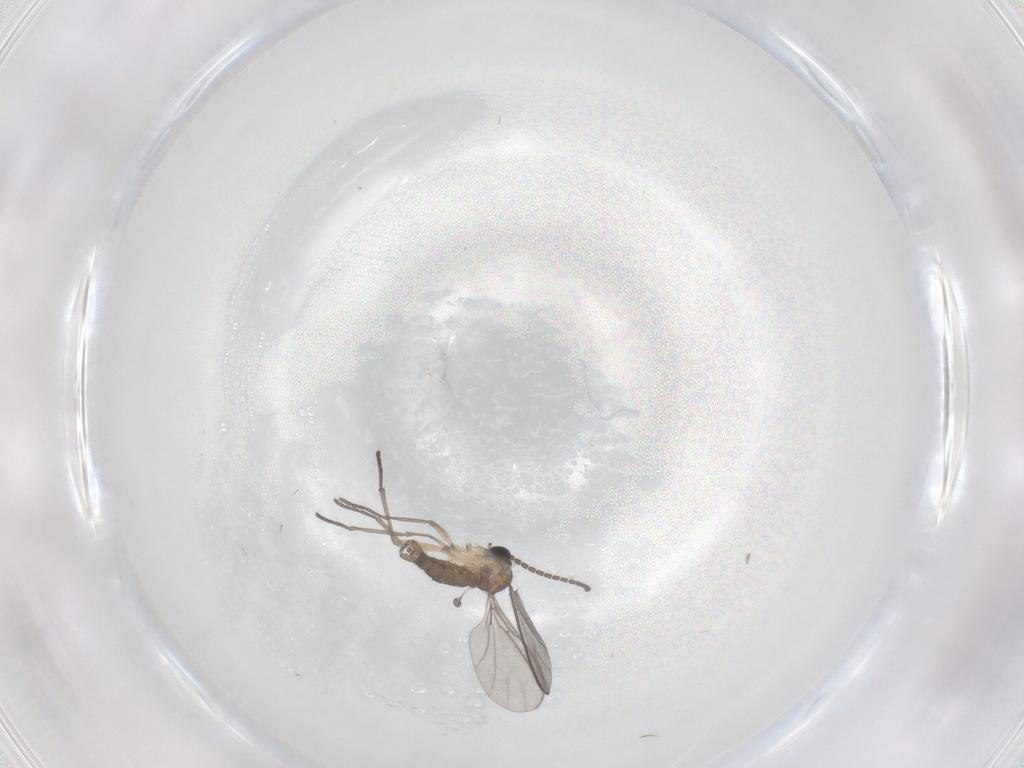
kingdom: Animalia
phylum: Arthropoda
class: Insecta
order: Diptera
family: Sciaridae
